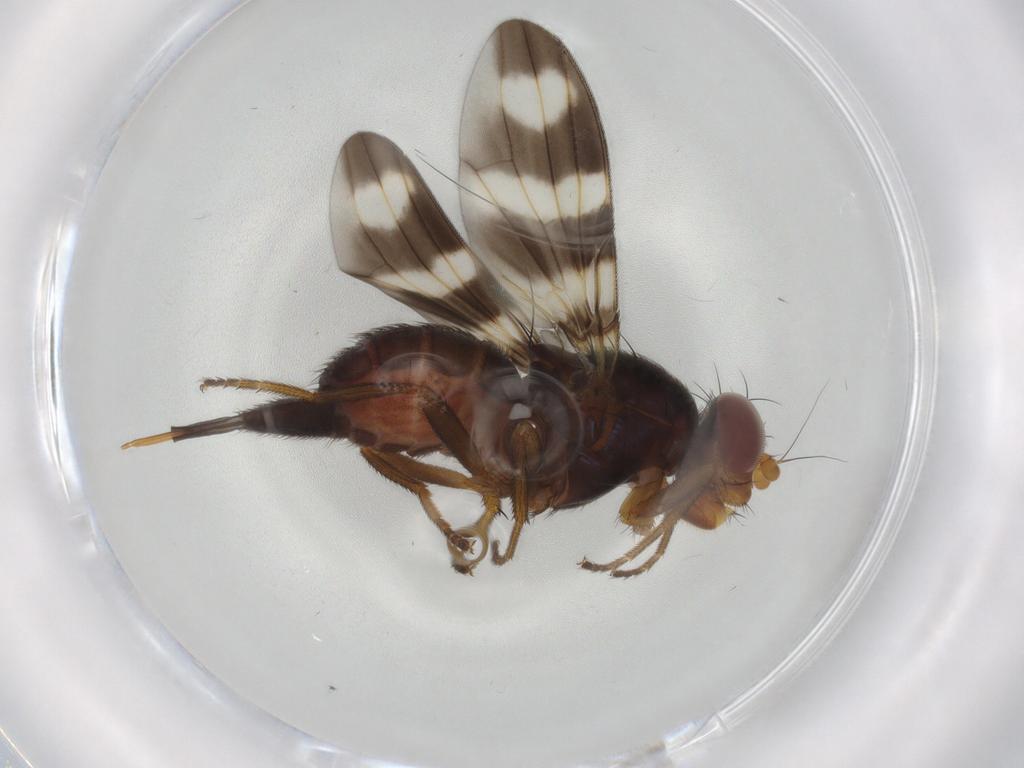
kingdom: Animalia
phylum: Arthropoda
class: Insecta
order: Diptera
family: Chironomidae
